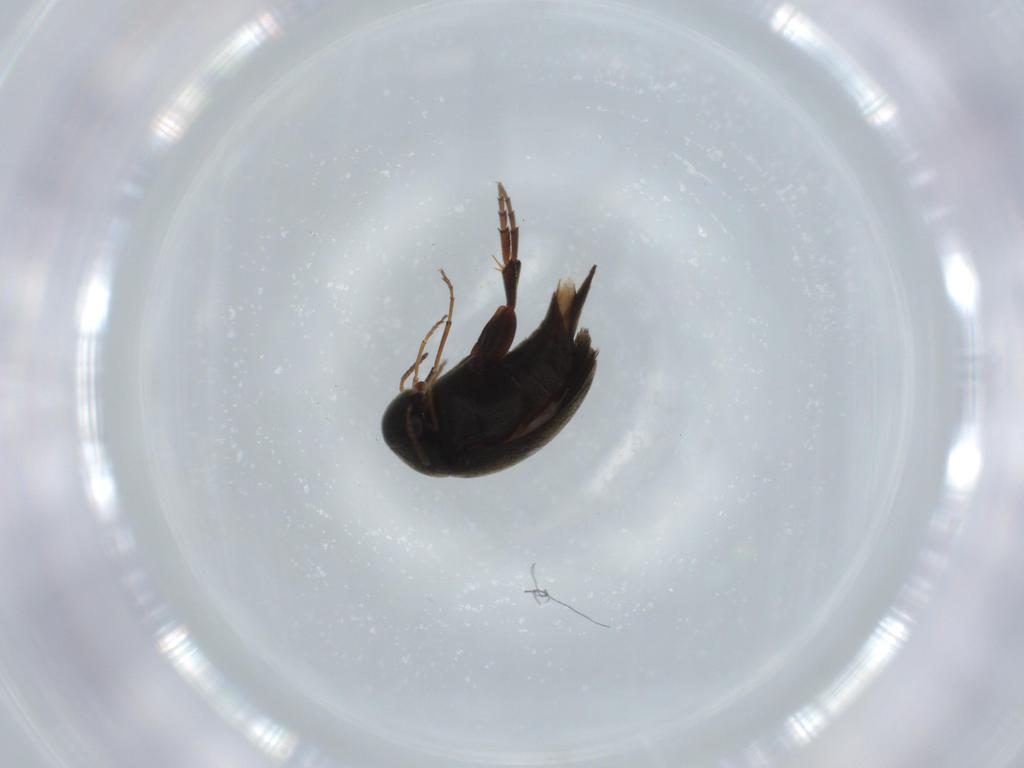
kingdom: Animalia
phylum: Arthropoda
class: Insecta
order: Coleoptera
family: Mordellidae
